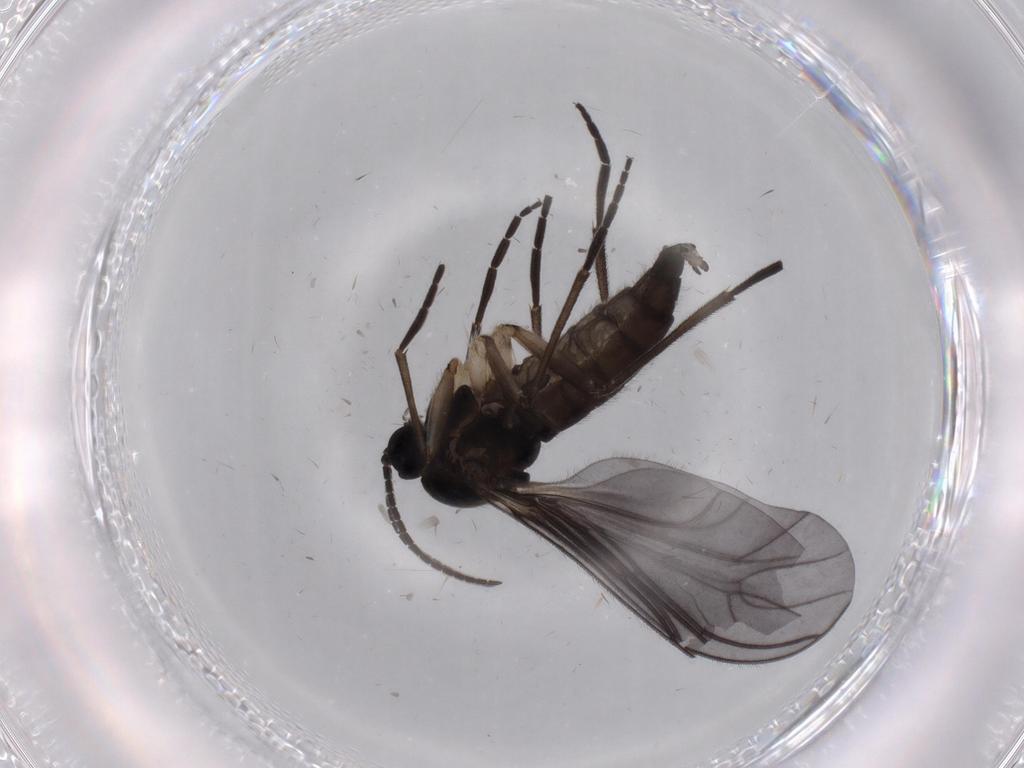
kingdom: Animalia
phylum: Arthropoda
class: Insecta
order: Diptera
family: Sciaridae
